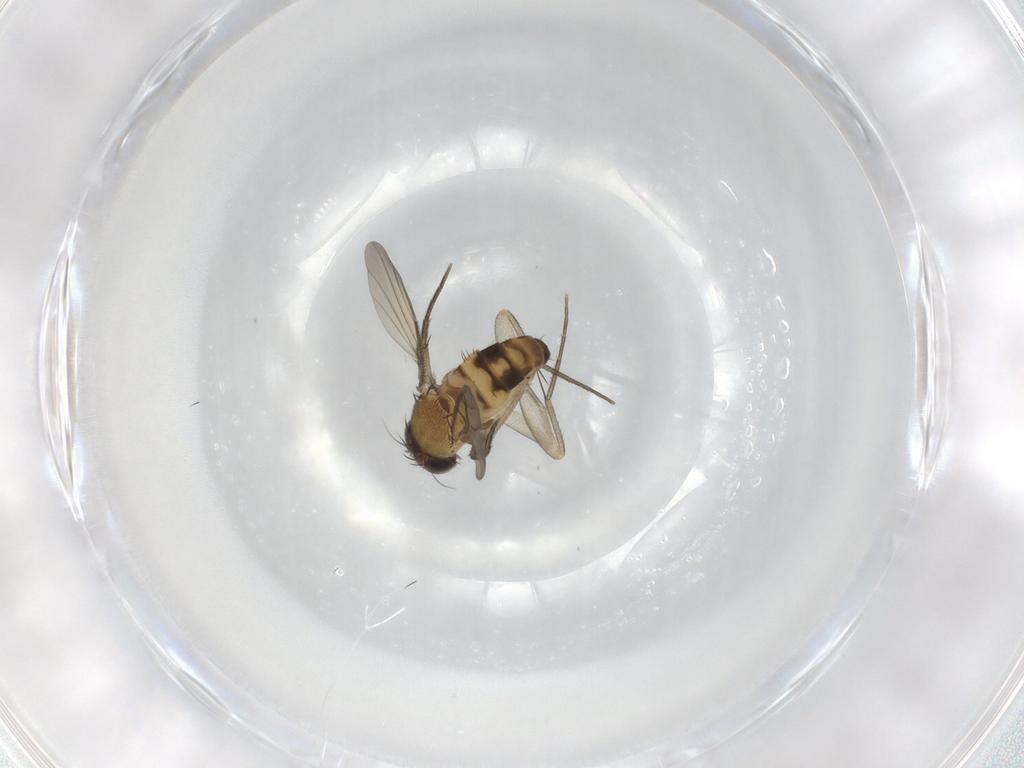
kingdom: Animalia
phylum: Arthropoda
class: Insecta
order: Diptera
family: Phoridae
